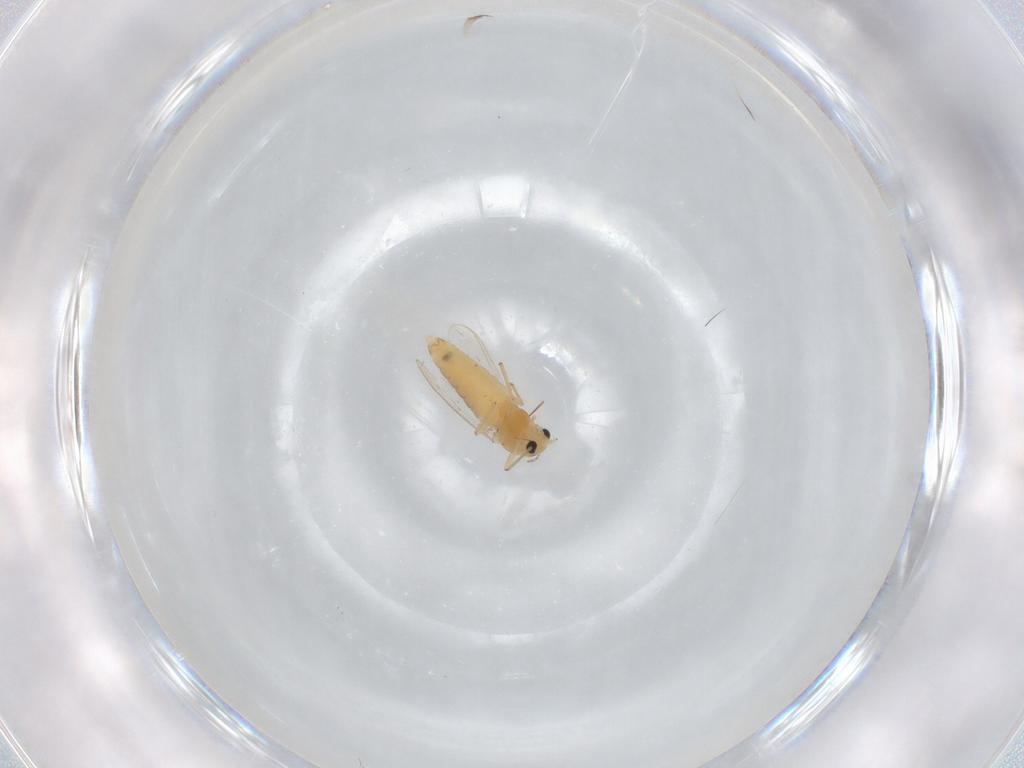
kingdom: Animalia
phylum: Arthropoda
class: Insecta
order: Diptera
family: Chironomidae
